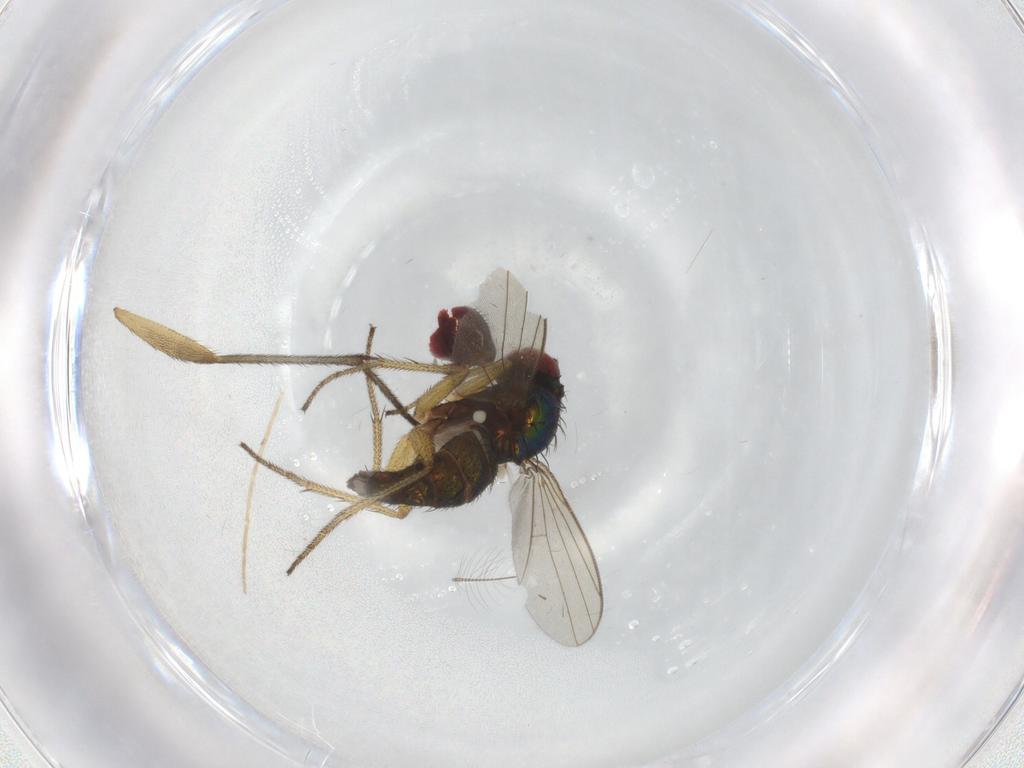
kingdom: Animalia
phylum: Arthropoda
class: Insecta
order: Diptera
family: Dolichopodidae
